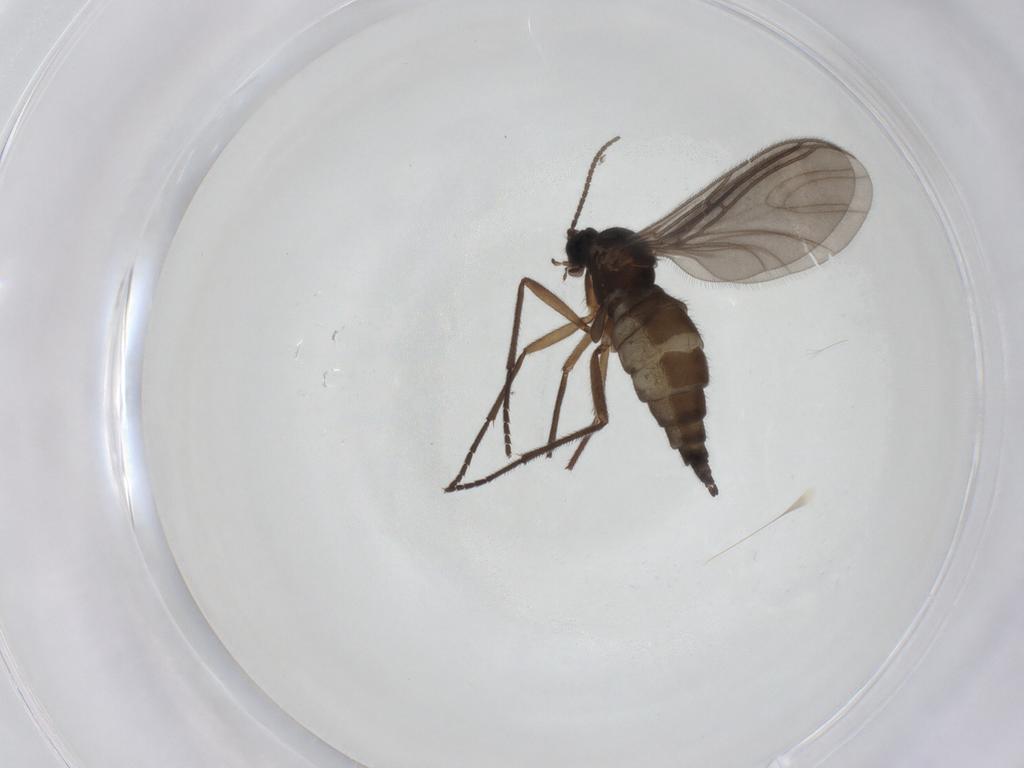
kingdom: Animalia
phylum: Arthropoda
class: Insecta
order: Diptera
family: Sciaridae
